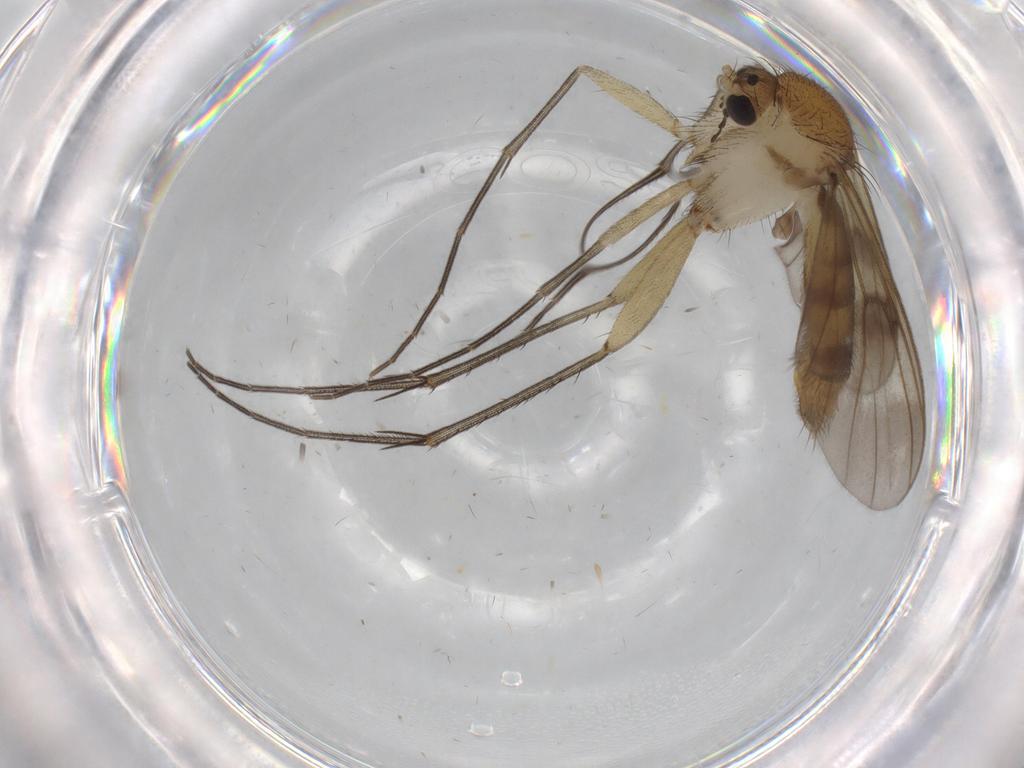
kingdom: Animalia
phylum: Arthropoda
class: Insecta
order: Diptera
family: Mycetophilidae
